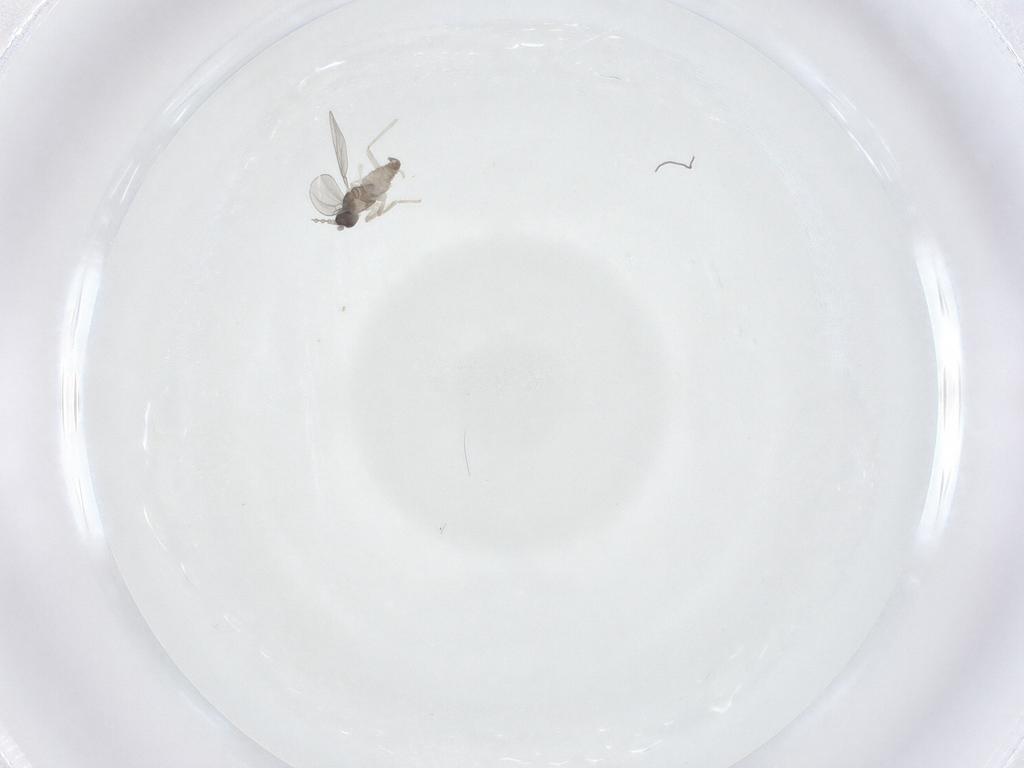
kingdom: Animalia
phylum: Arthropoda
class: Insecta
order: Diptera
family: Cecidomyiidae
